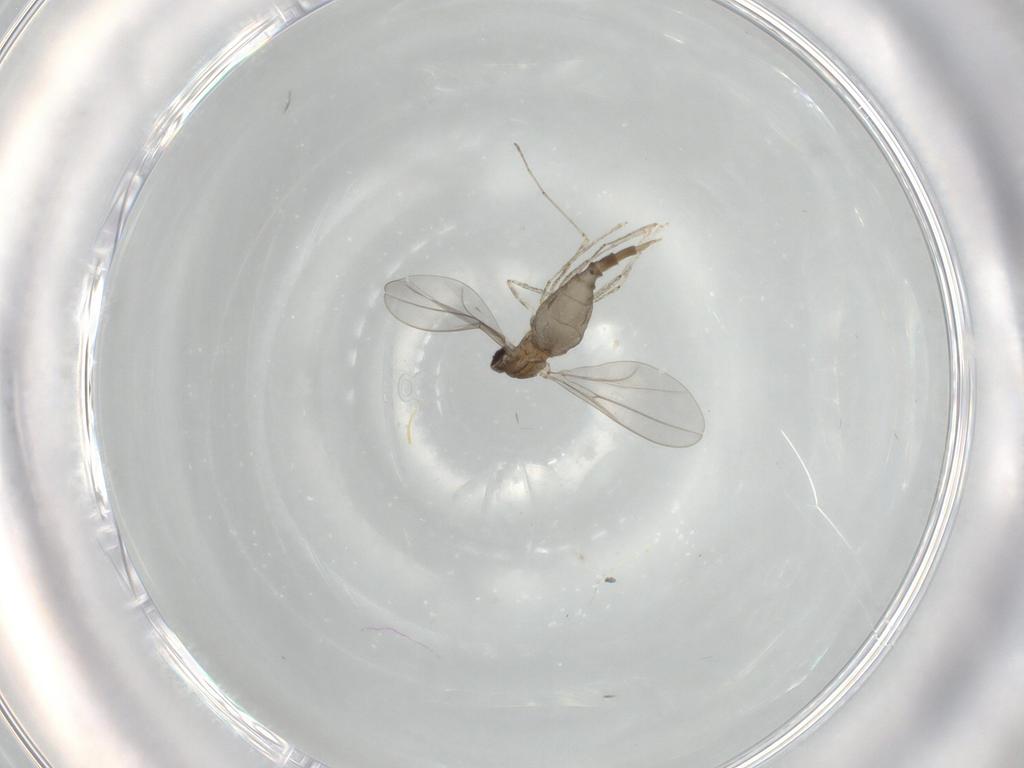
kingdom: Animalia
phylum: Arthropoda
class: Insecta
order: Diptera
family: Cecidomyiidae
